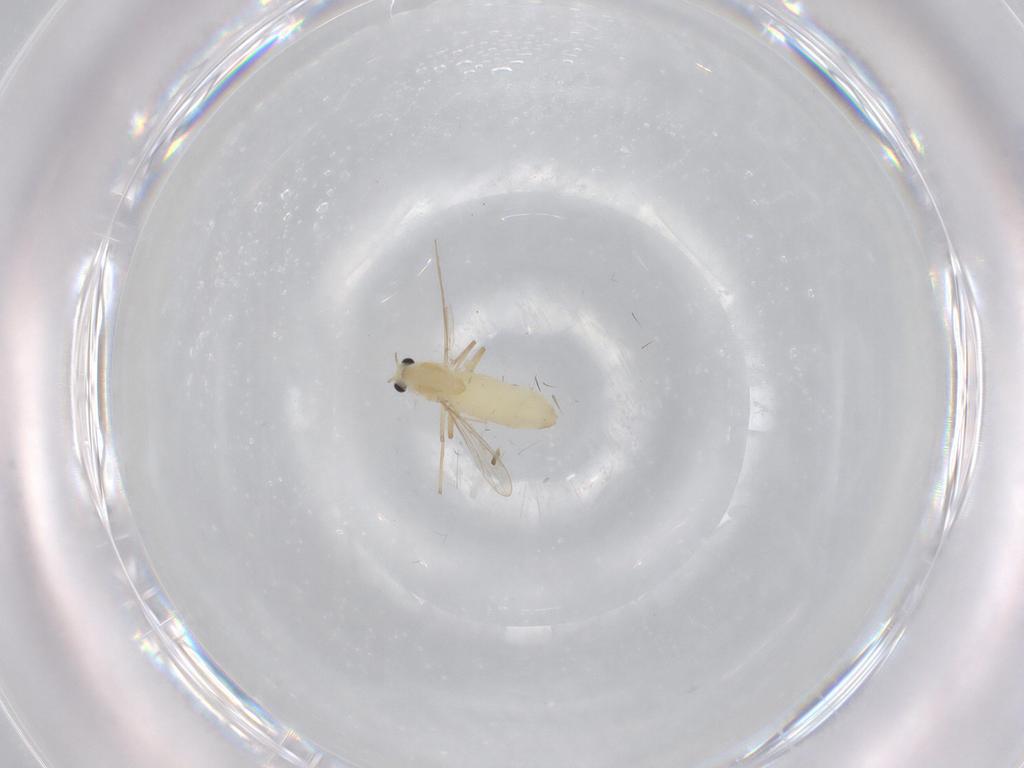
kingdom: Animalia
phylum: Arthropoda
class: Insecta
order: Diptera
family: Chironomidae
